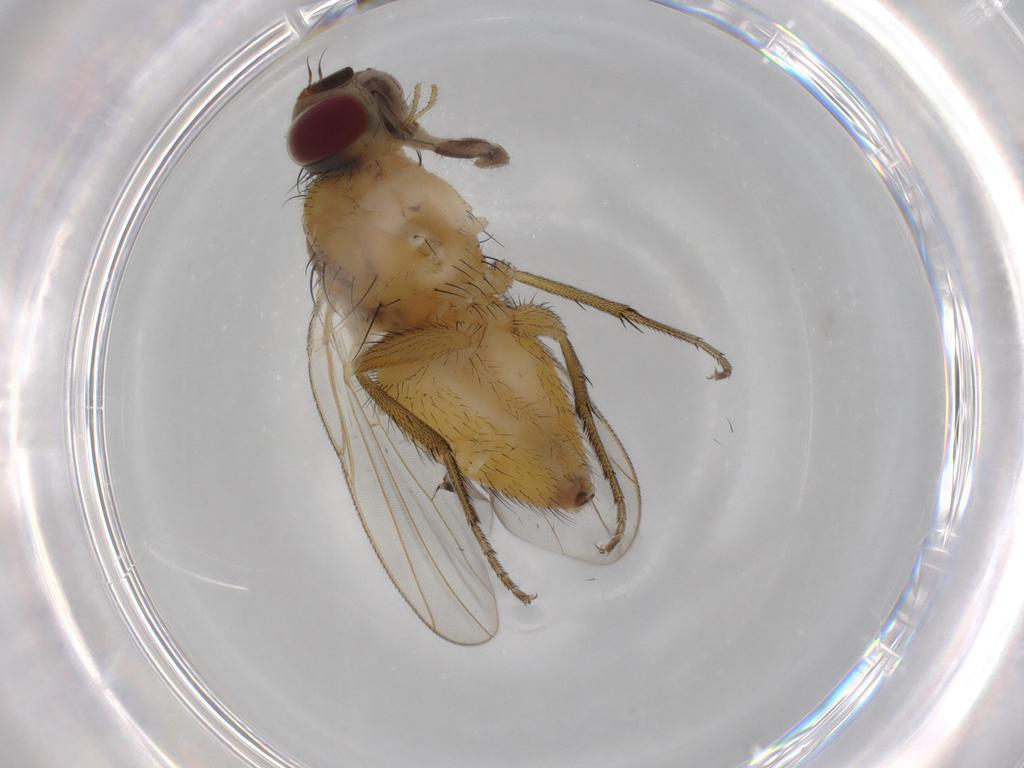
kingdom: Animalia
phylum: Arthropoda
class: Insecta
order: Diptera
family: Muscidae
